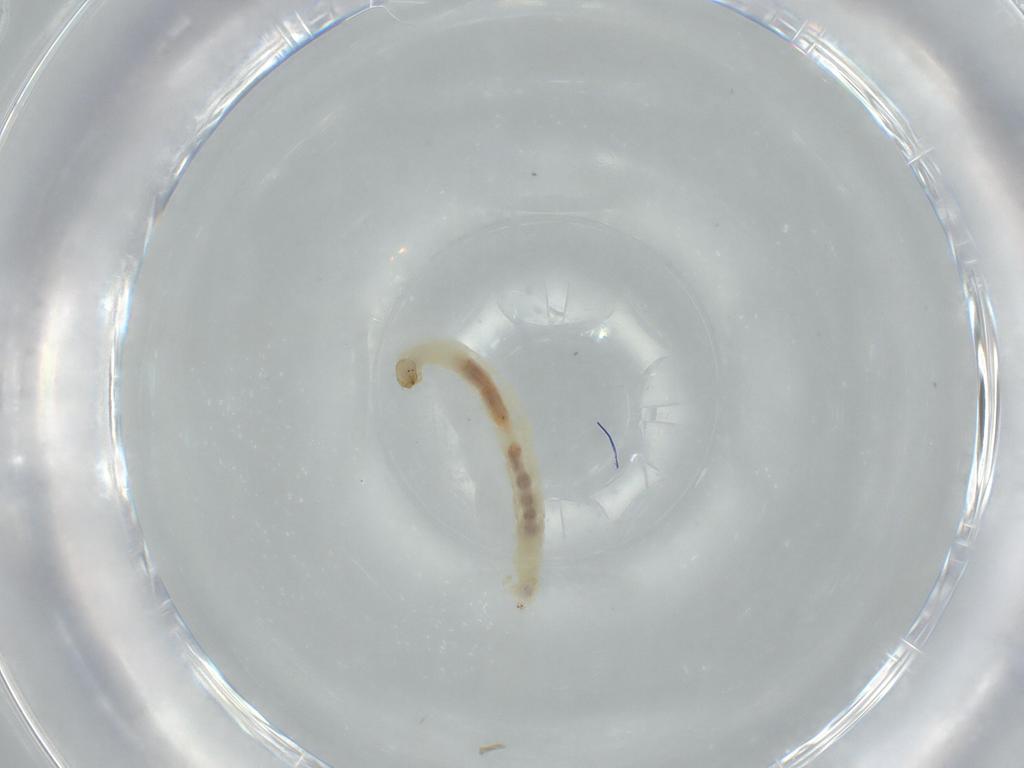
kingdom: Animalia
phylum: Arthropoda
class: Insecta
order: Diptera
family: Chironomidae
